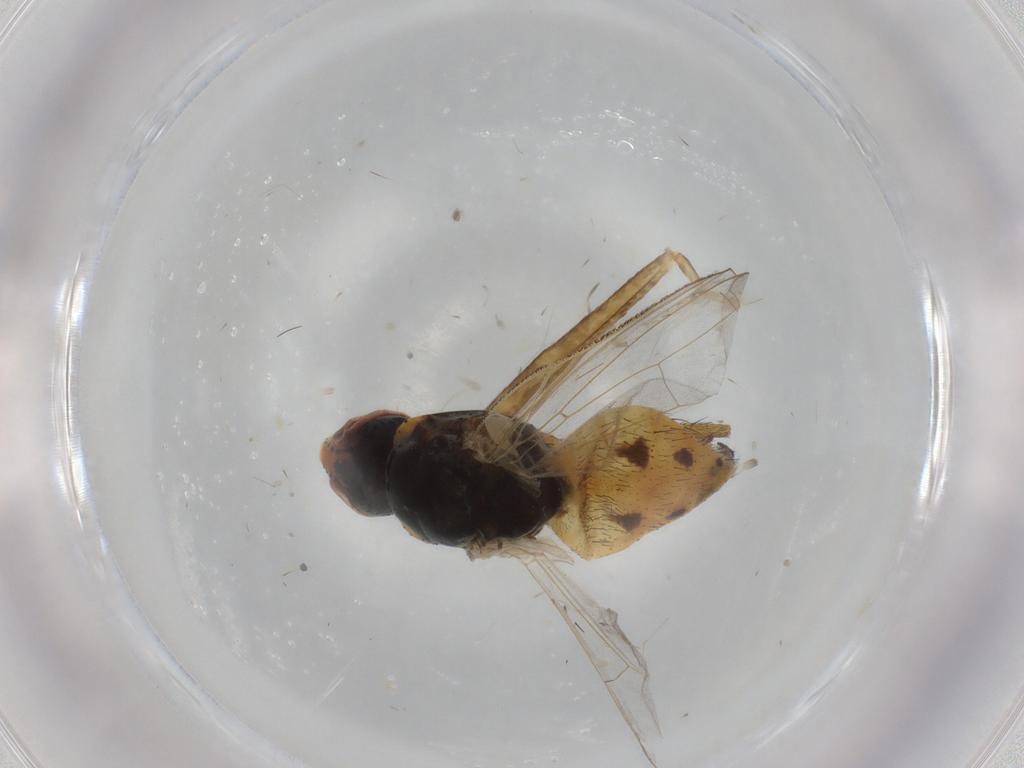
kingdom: Animalia
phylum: Arthropoda
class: Insecta
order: Diptera
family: Muscidae
